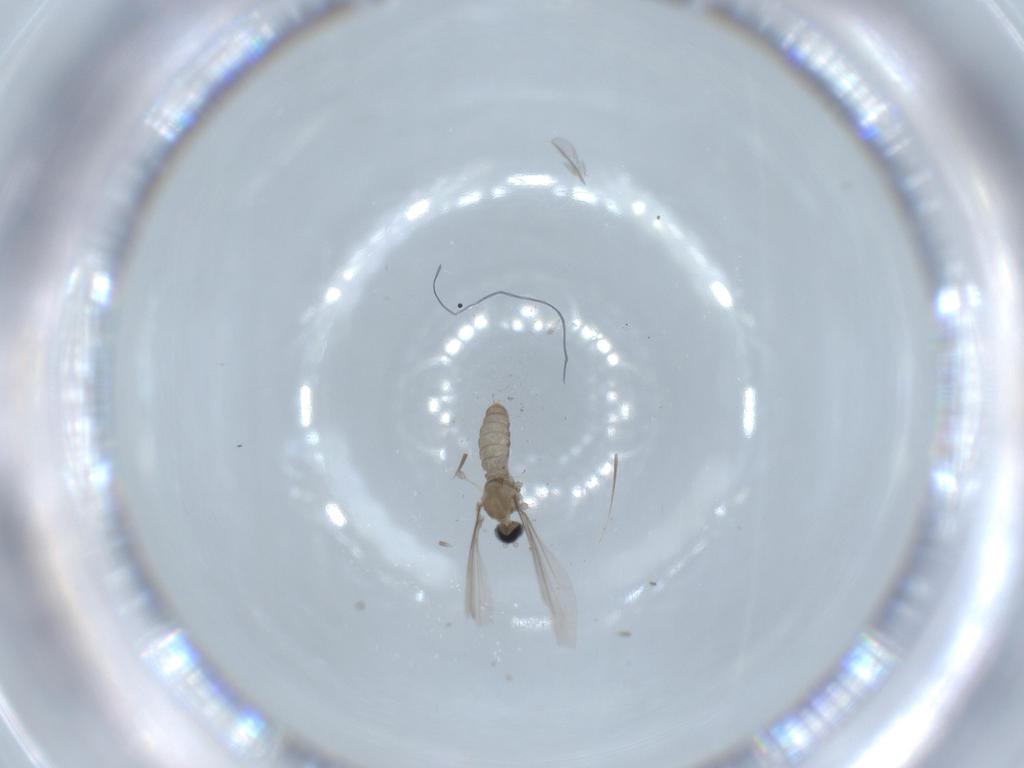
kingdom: Animalia
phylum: Arthropoda
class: Insecta
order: Diptera
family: Cecidomyiidae
